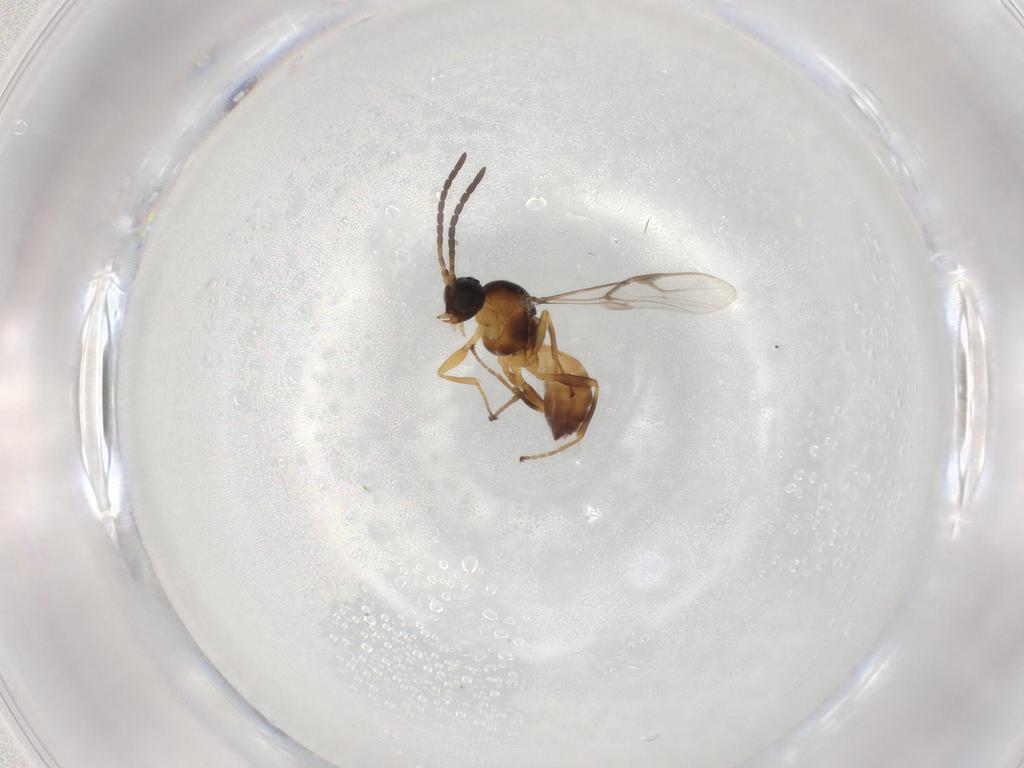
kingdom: Animalia
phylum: Arthropoda
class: Insecta
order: Hymenoptera
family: Braconidae
